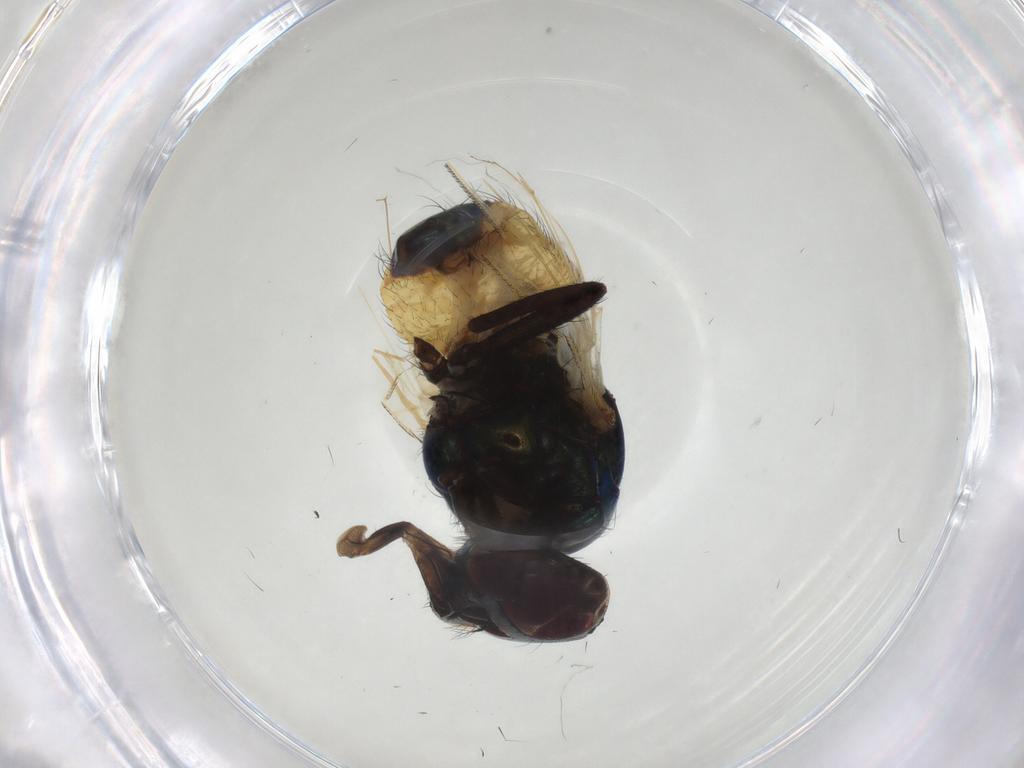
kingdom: Animalia
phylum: Arthropoda
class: Insecta
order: Diptera
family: Muscidae
